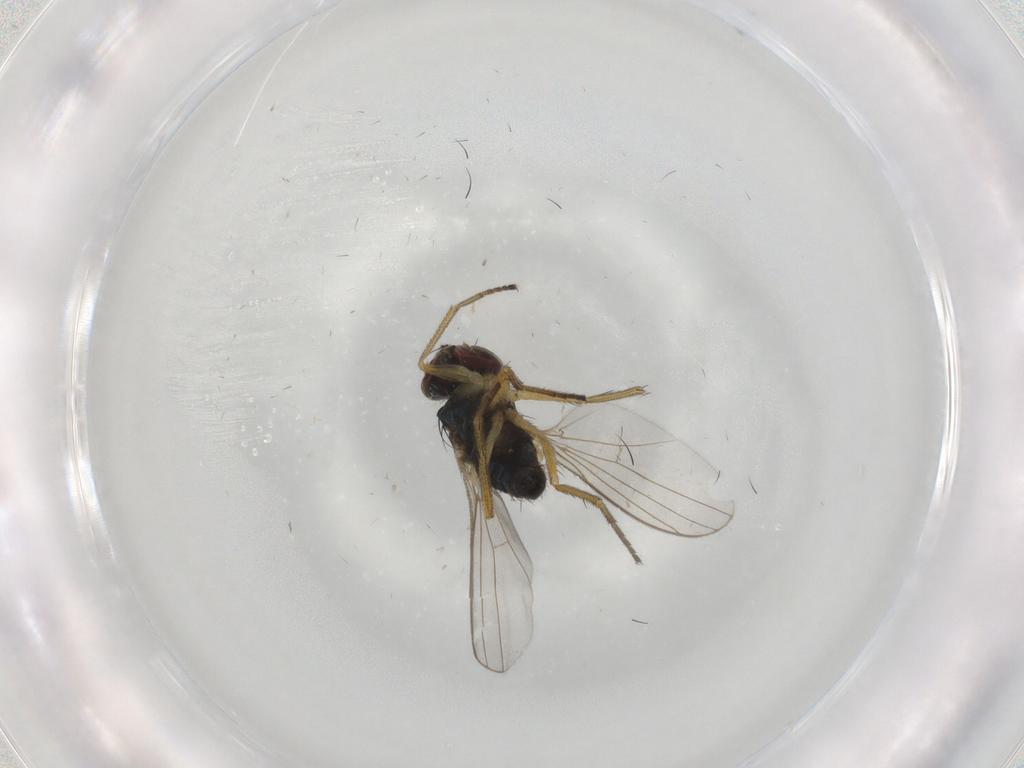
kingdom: Animalia
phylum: Arthropoda
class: Insecta
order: Diptera
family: Dolichopodidae
